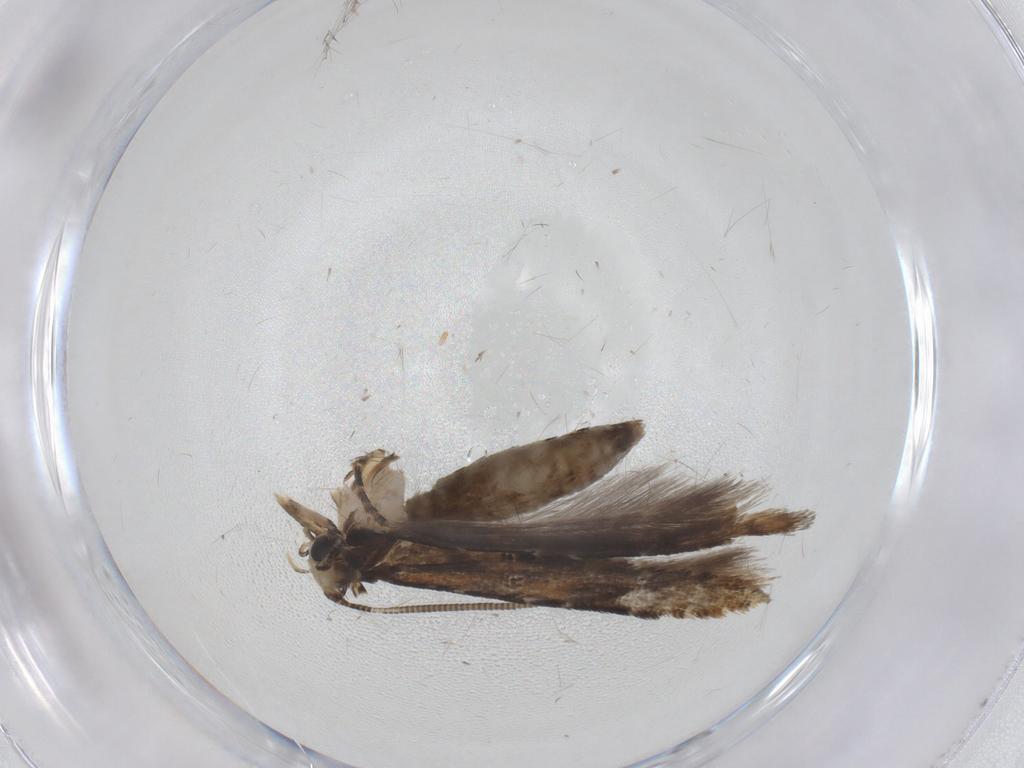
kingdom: Animalia
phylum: Arthropoda
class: Insecta
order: Lepidoptera
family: Tineidae
